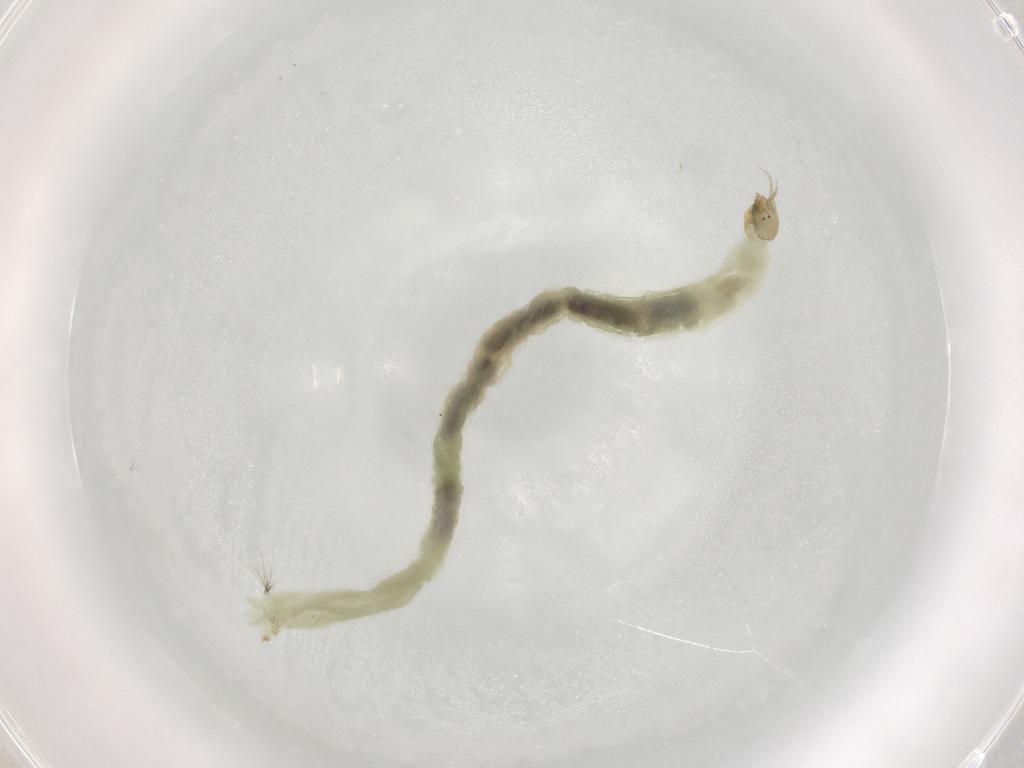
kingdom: Animalia
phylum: Arthropoda
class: Insecta
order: Diptera
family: Chironomidae
